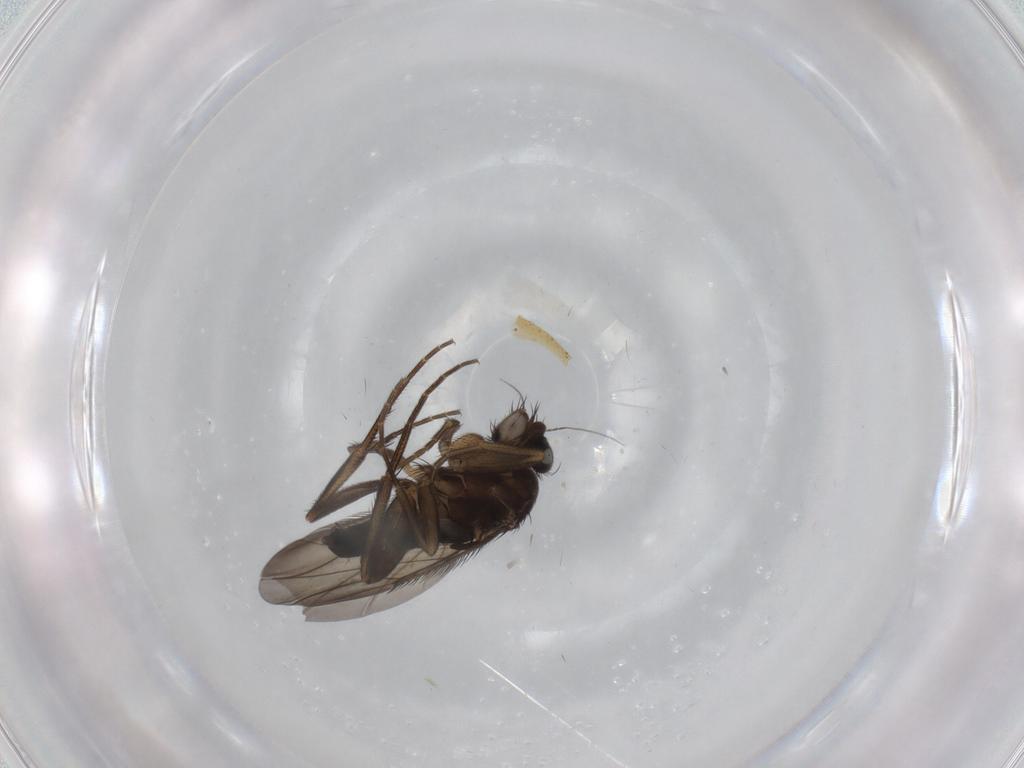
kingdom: Animalia
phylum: Arthropoda
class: Insecta
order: Diptera
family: Phoridae
